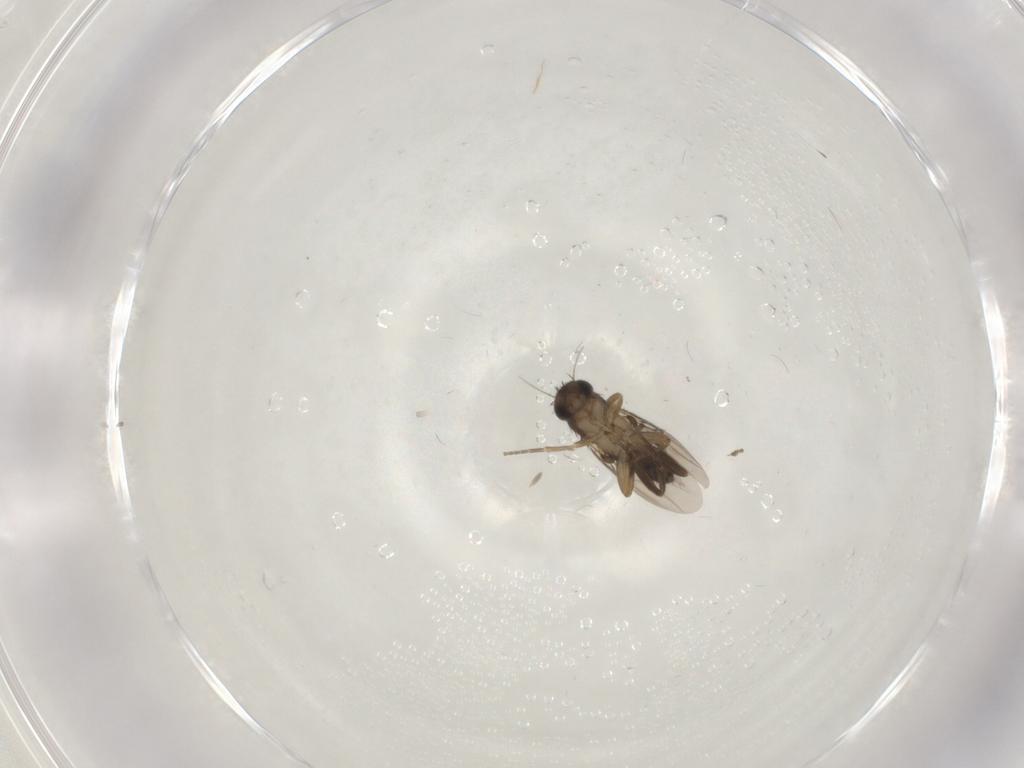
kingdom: Animalia
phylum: Arthropoda
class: Insecta
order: Diptera
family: Phoridae
